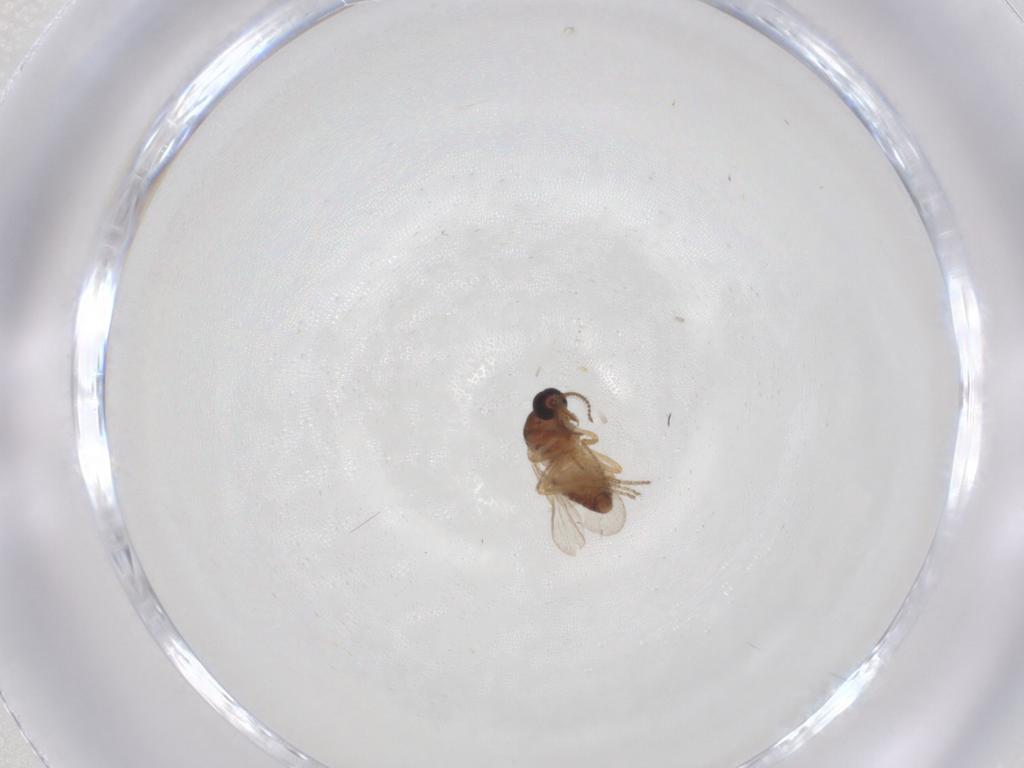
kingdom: Animalia
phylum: Arthropoda
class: Insecta
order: Diptera
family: Ceratopogonidae
